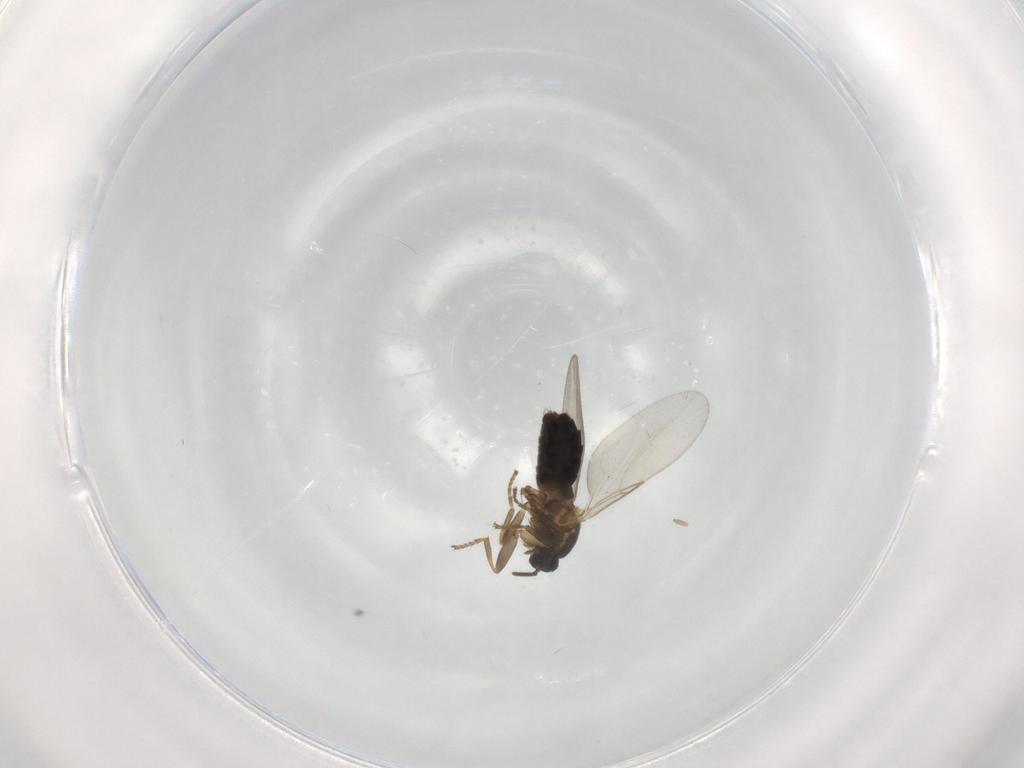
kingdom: Animalia
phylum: Arthropoda
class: Insecta
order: Diptera
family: Scatopsidae
